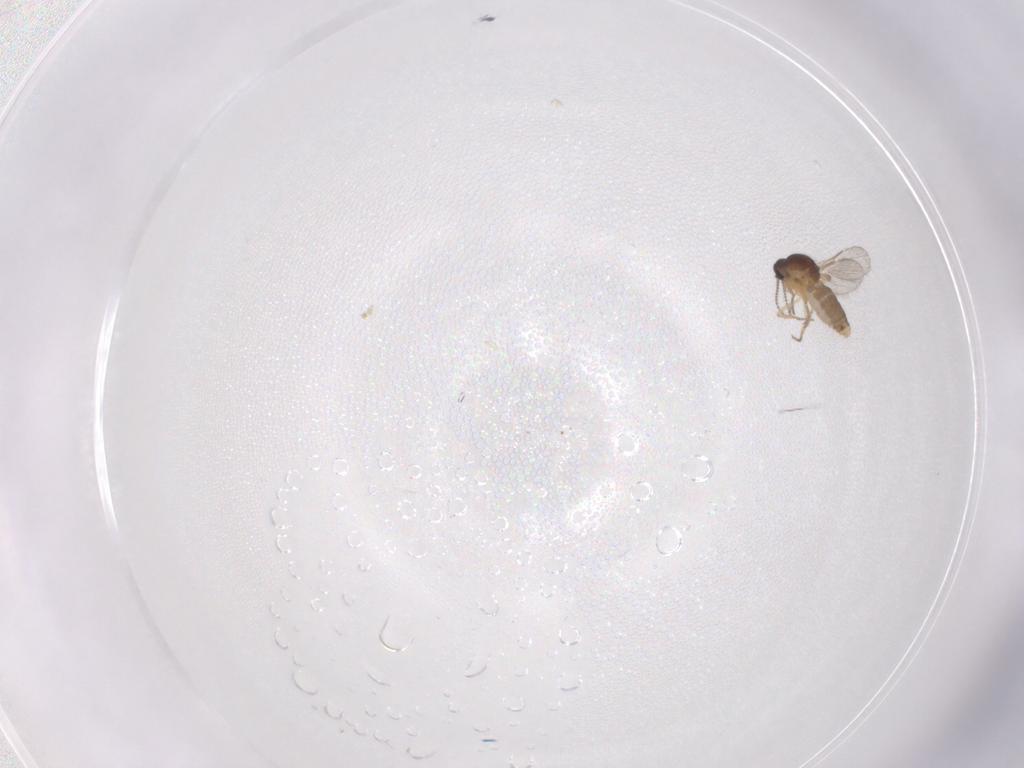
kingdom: Animalia
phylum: Arthropoda
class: Insecta
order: Diptera
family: Ceratopogonidae
